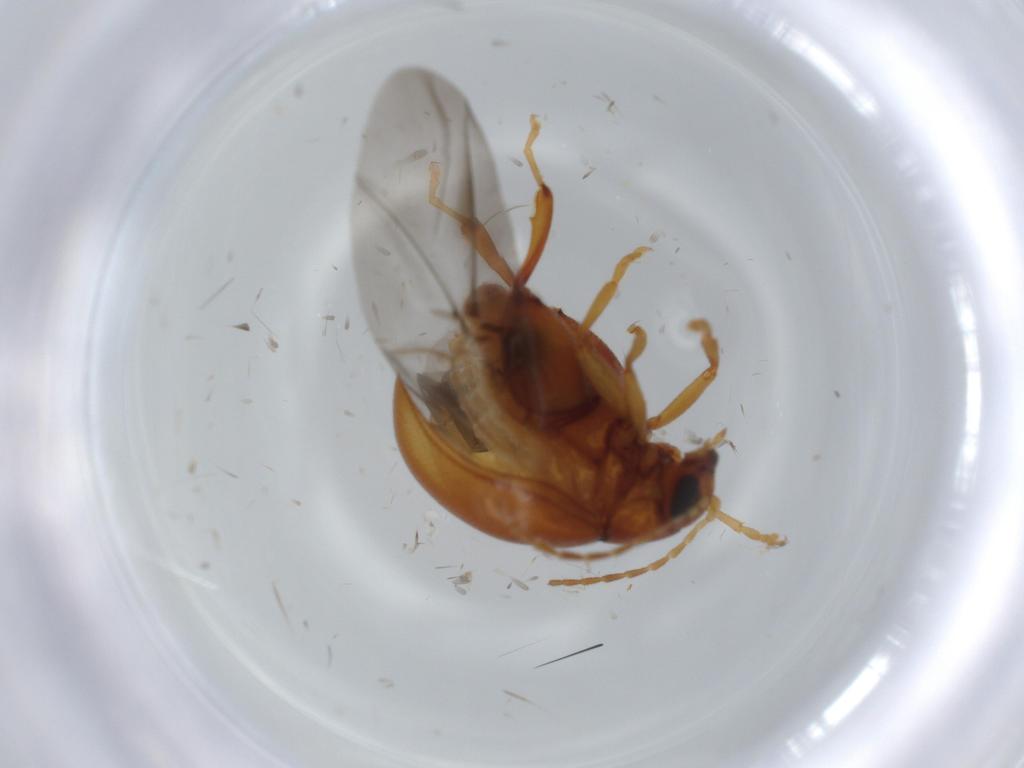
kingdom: Animalia
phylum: Arthropoda
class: Insecta
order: Coleoptera
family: Chrysomelidae
